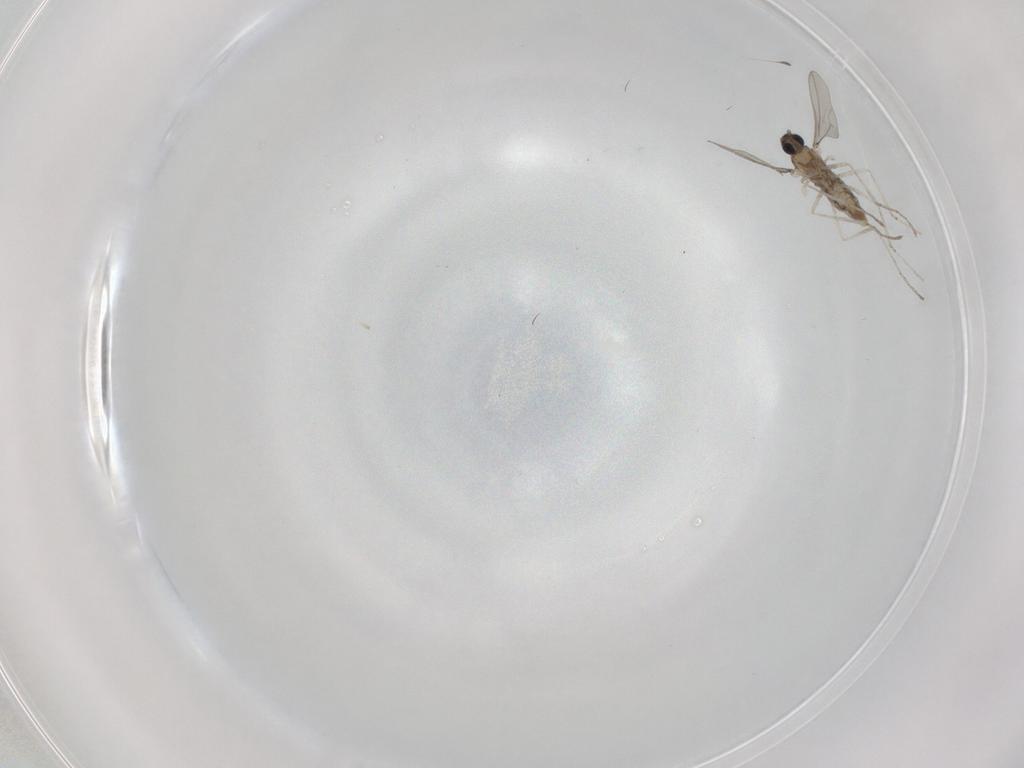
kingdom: Animalia
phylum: Arthropoda
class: Insecta
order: Diptera
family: Cecidomyiidae
